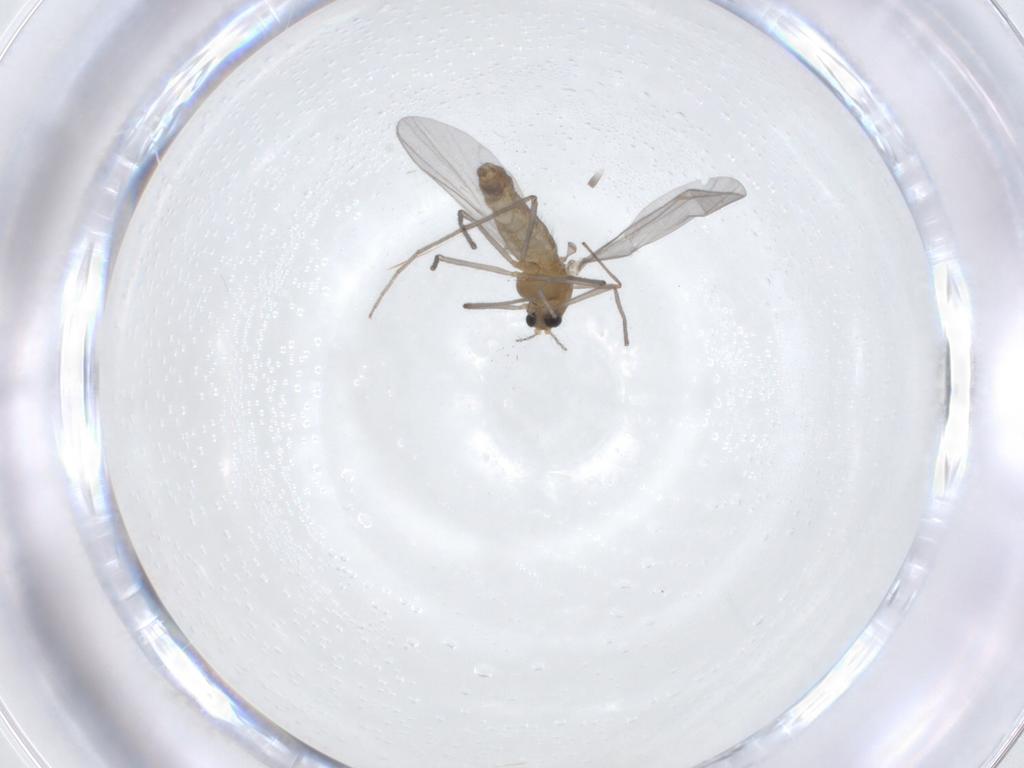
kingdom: Animalia
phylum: Arthropoda
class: Insecta
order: Diptera
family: Chironomidae
